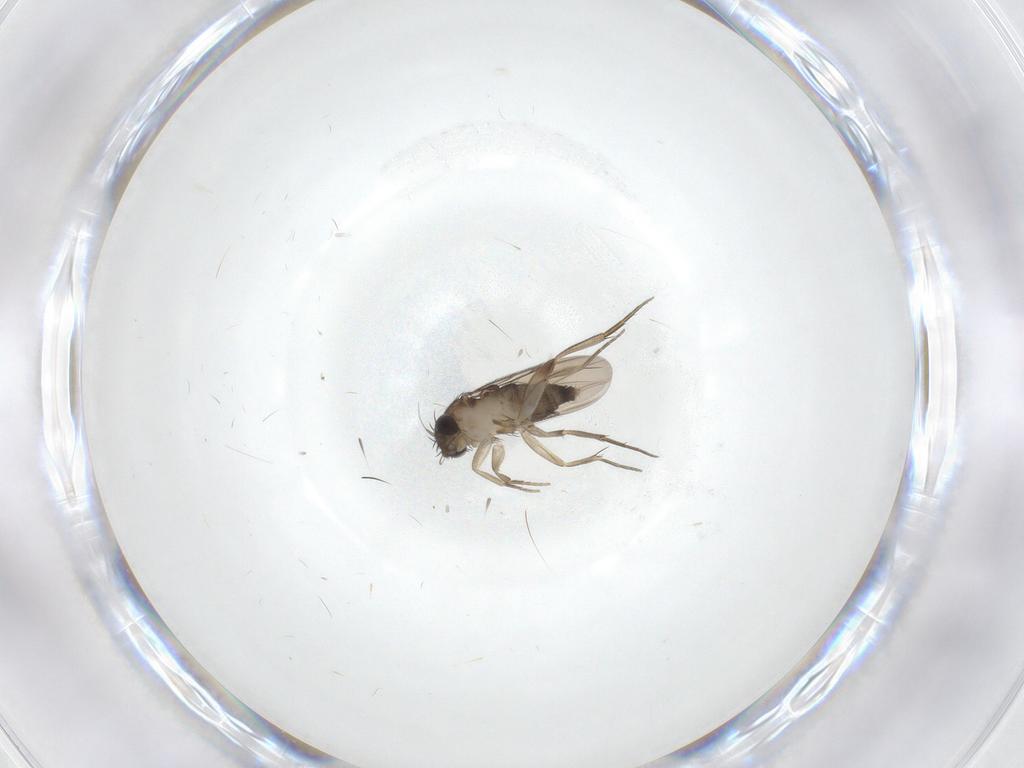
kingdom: Animalia
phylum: Arthropoda
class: Insecta
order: Diptera
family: Phoridae
